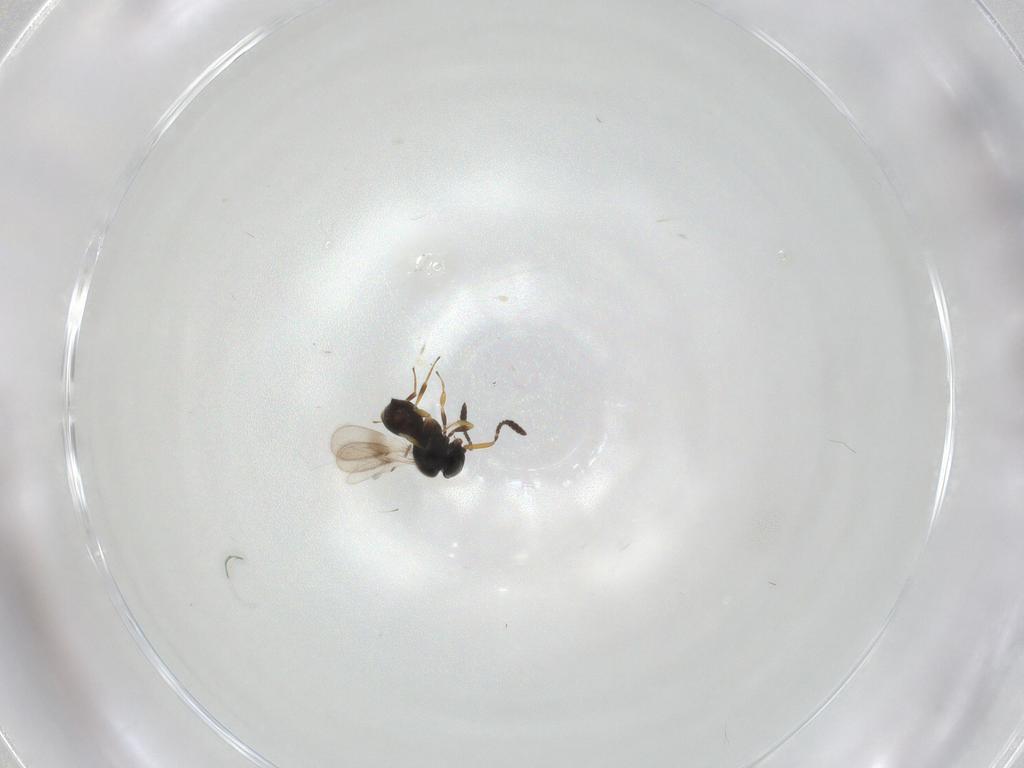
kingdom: Animalia
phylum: Arthropoda
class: Insecta
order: Hymenoptera
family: Scelionidae
